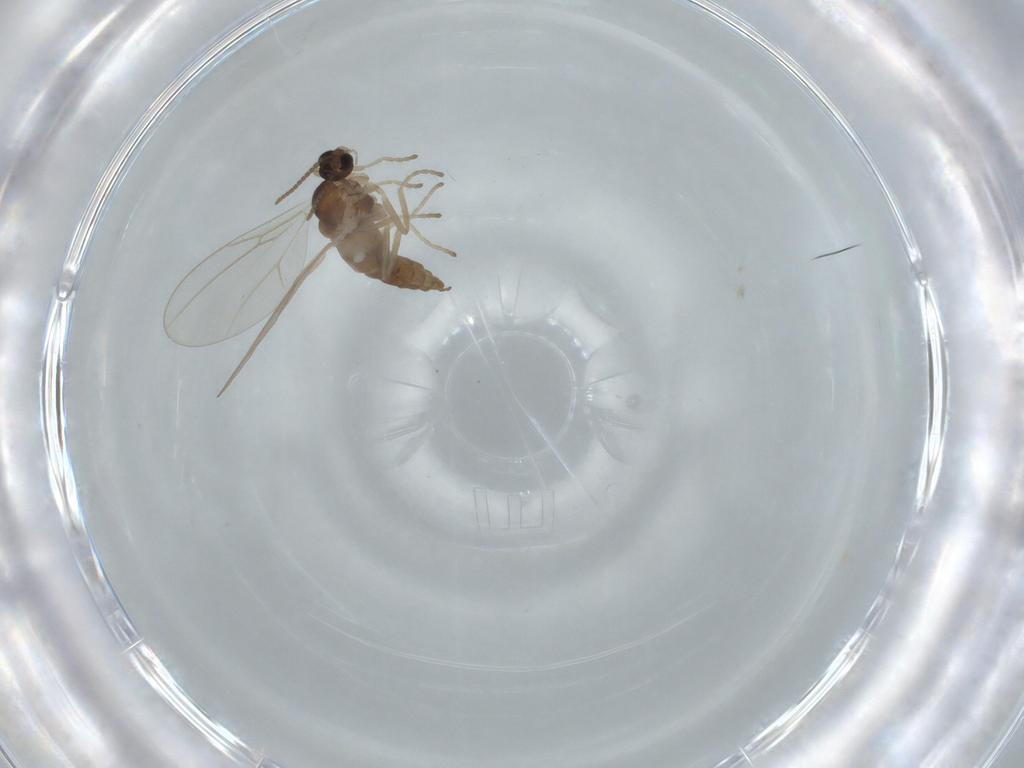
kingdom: Animalia
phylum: Arthropoda
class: Insecta
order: Diptera
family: Cecidomyiidae
